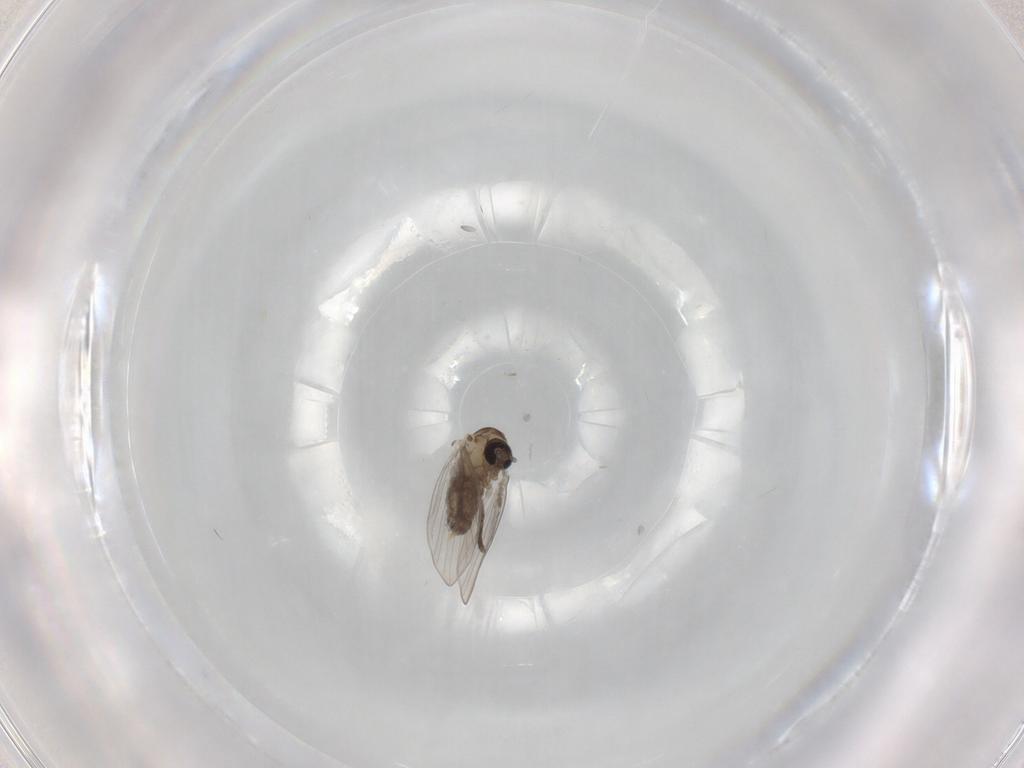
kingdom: Animalia
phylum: Arthropoda
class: Insecta
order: Diptera
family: Psychodidae
